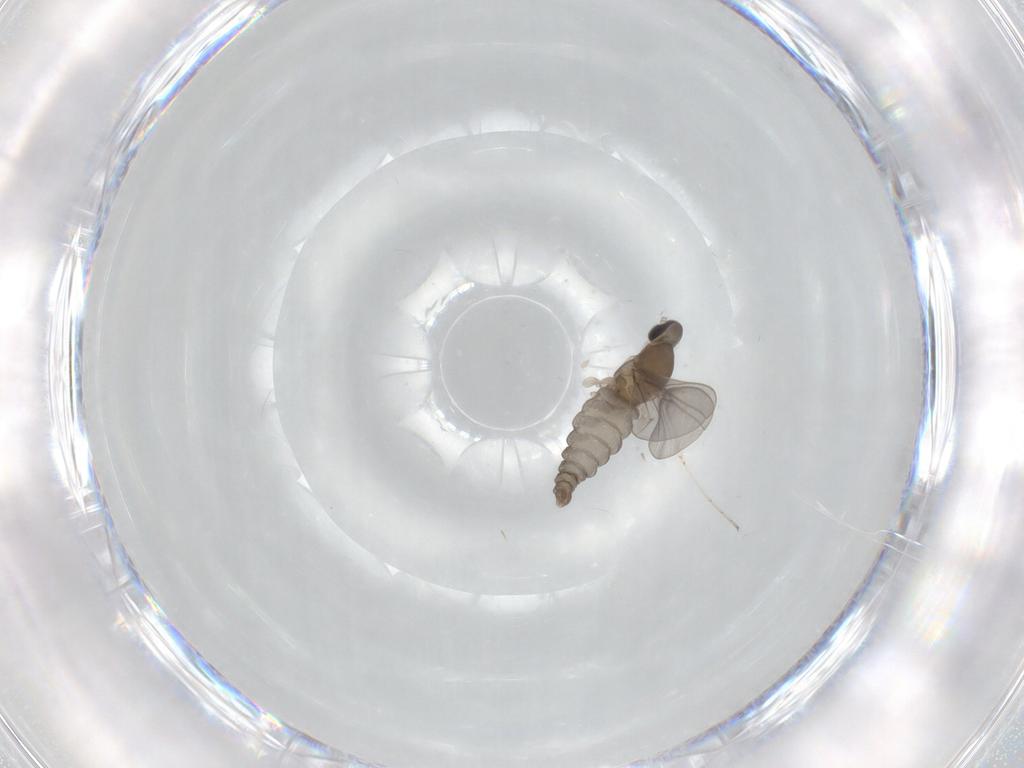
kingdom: Animalia
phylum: Arthropoda
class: Insecta
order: Diptera
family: Cecidomyiidae
